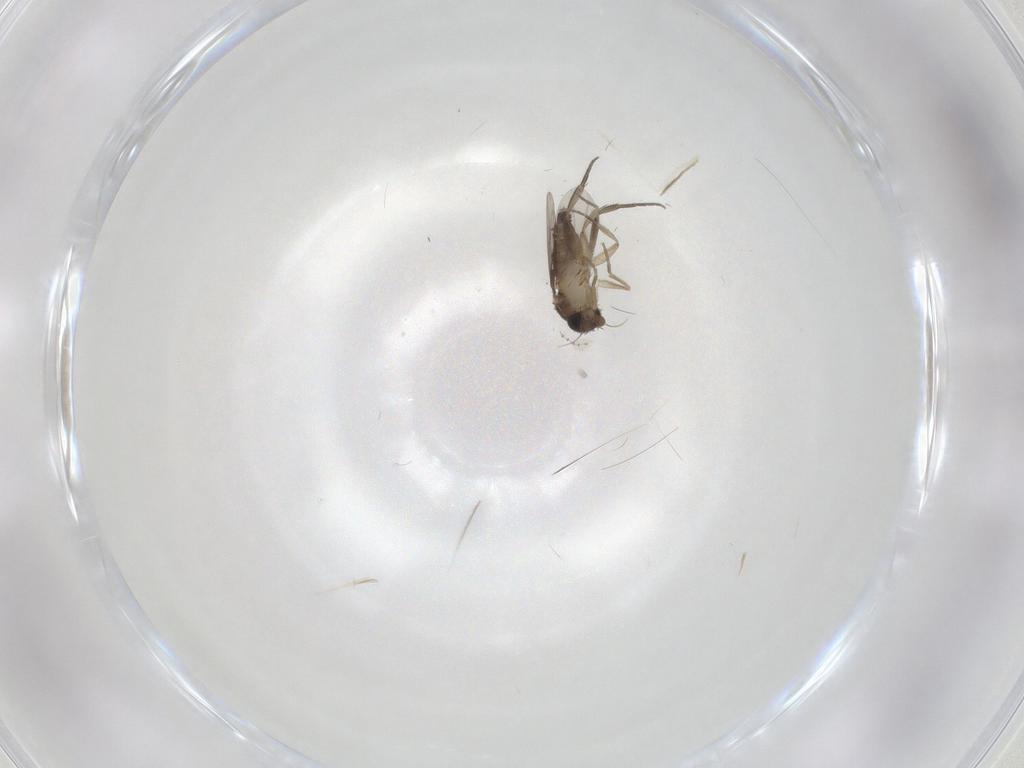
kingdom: Animalia
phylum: Arthropoda
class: Insecta
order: Diptera
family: Phoridae
